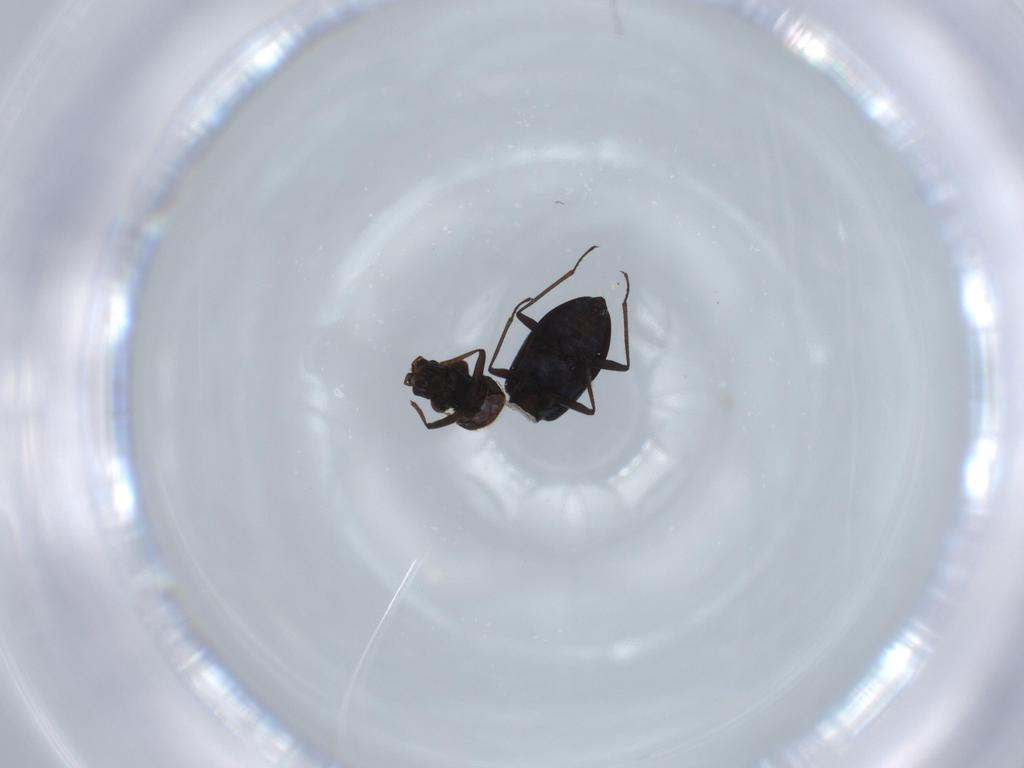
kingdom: Animalia
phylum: Arthropoda
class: Insecta
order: Coleoptera
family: Hydraenidae
